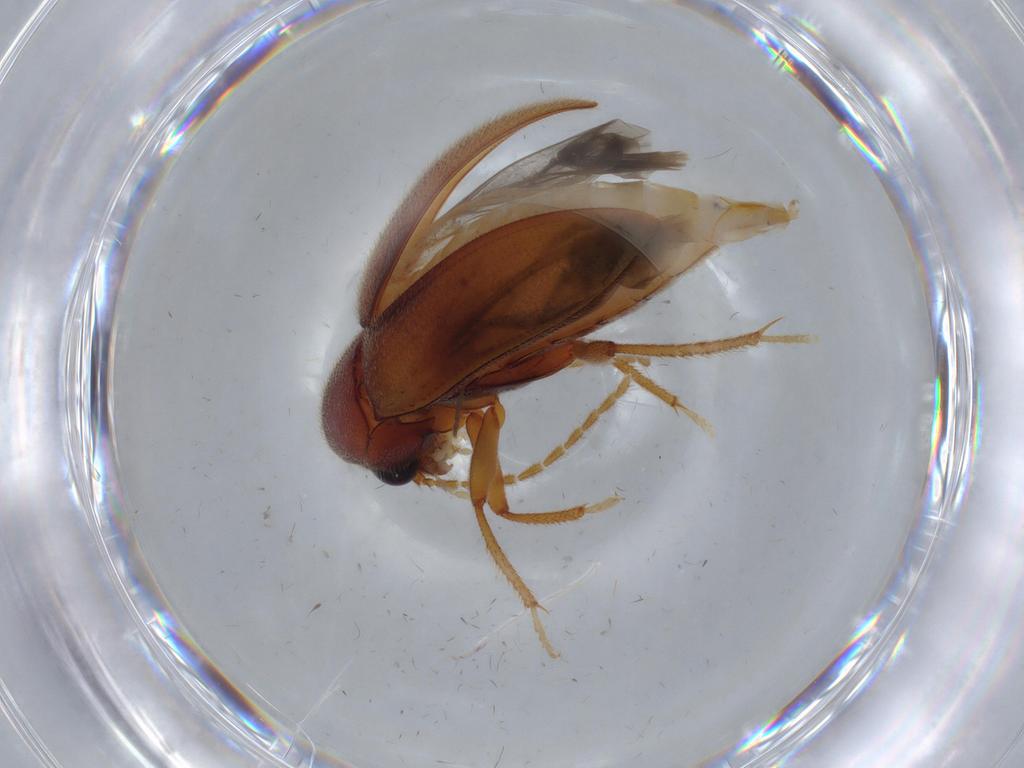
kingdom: Animalia
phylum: Arthropoda
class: Insecta
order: Coleoptera
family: Ptilodactylidae
